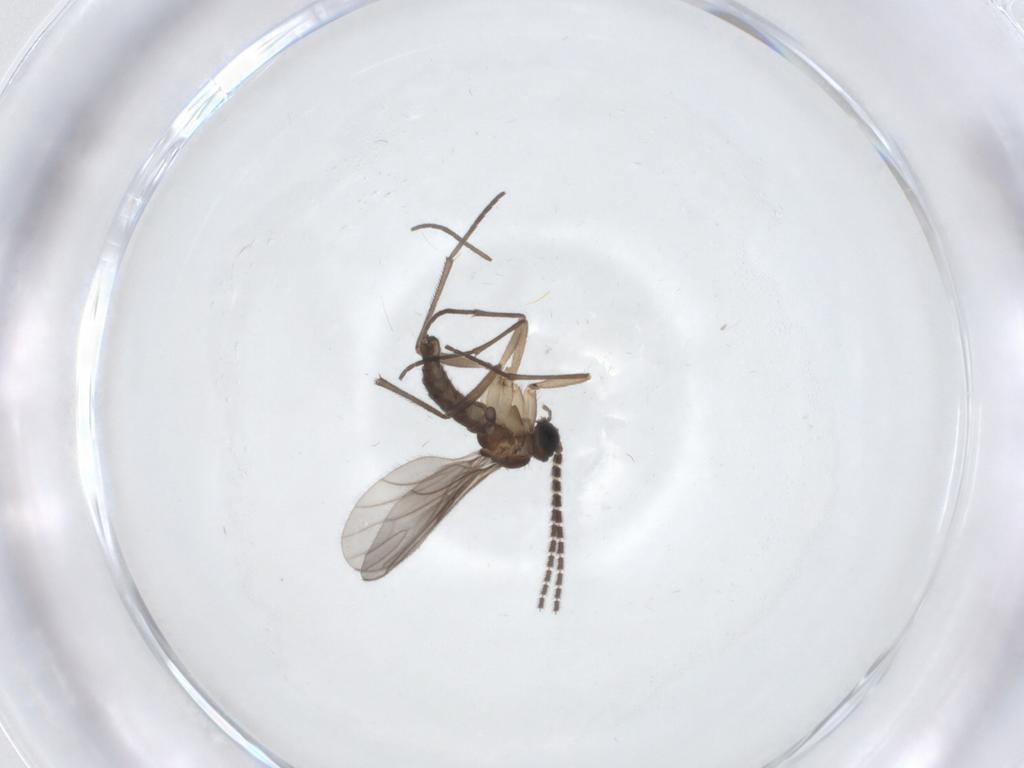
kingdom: Animalia
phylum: Arthropoda
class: Insecta
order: Diptera
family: Sciaridae
